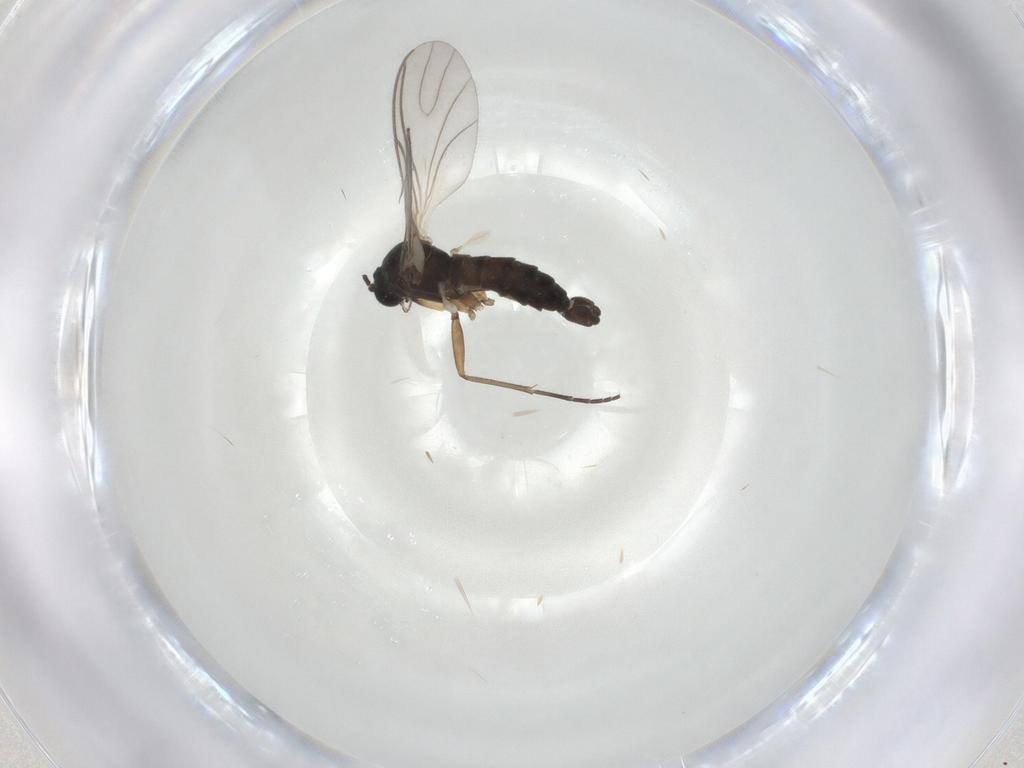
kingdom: Animalia
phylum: Arthropoda
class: Insecta
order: Diptera
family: Sciaridae
